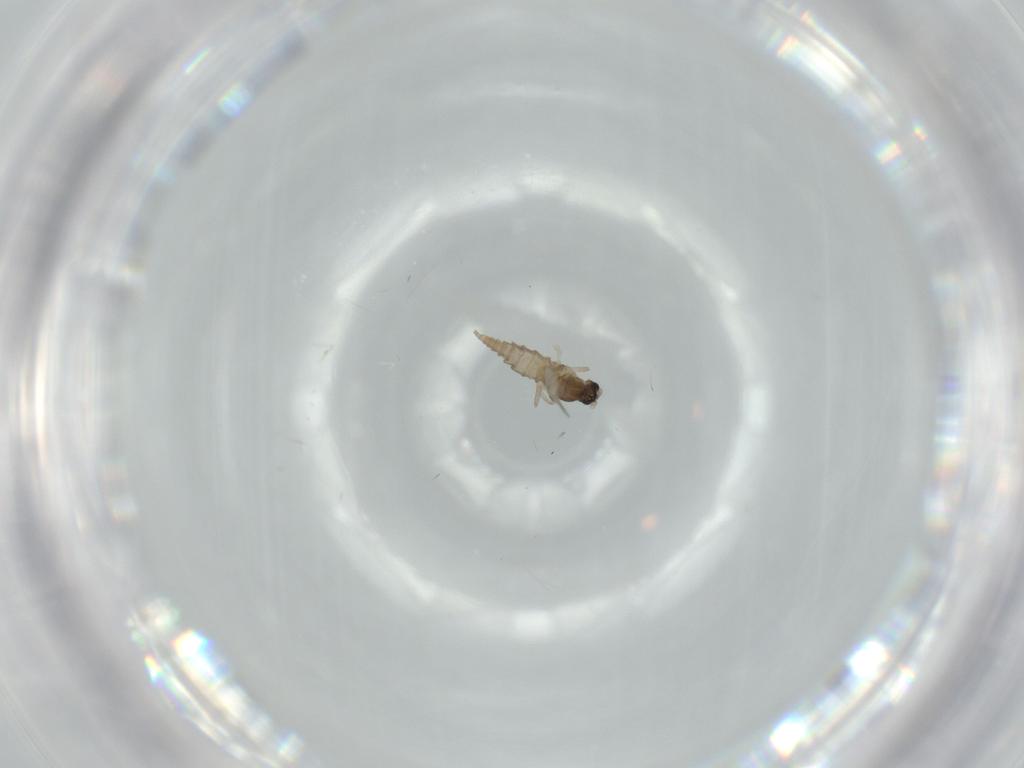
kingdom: Animalia
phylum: Arthropoda
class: Insecta
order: Diptera
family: Cecidomyiidae
